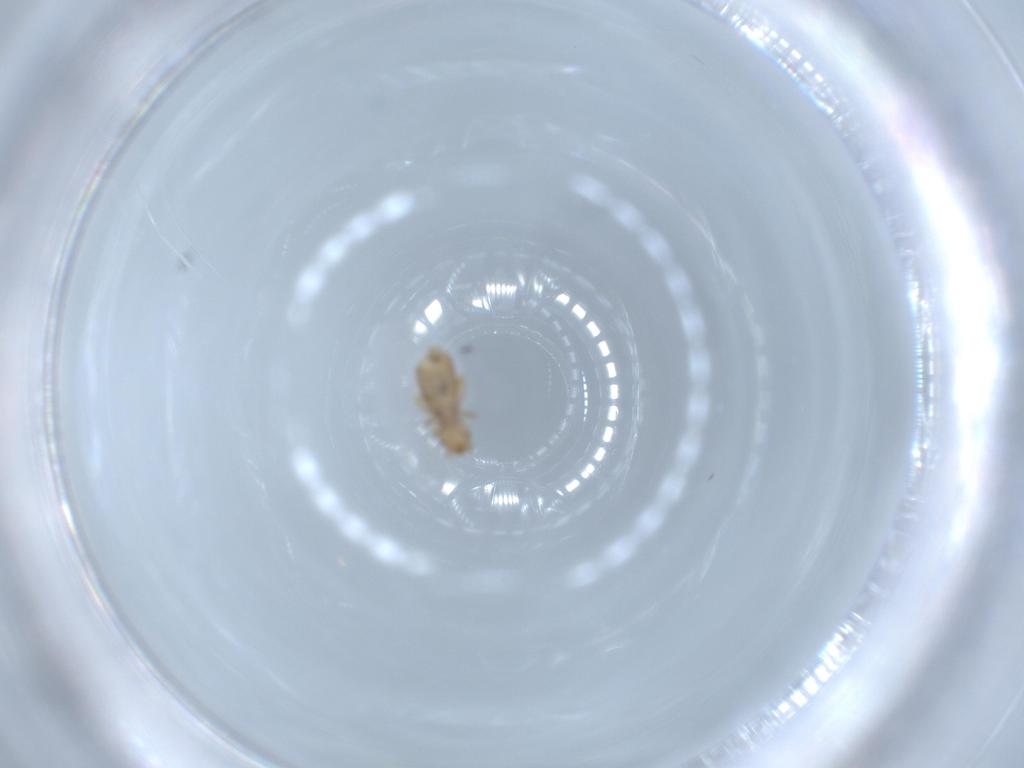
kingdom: Animalia
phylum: Arthropoda
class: Insecta
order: Psocodea
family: Liposcelididae
